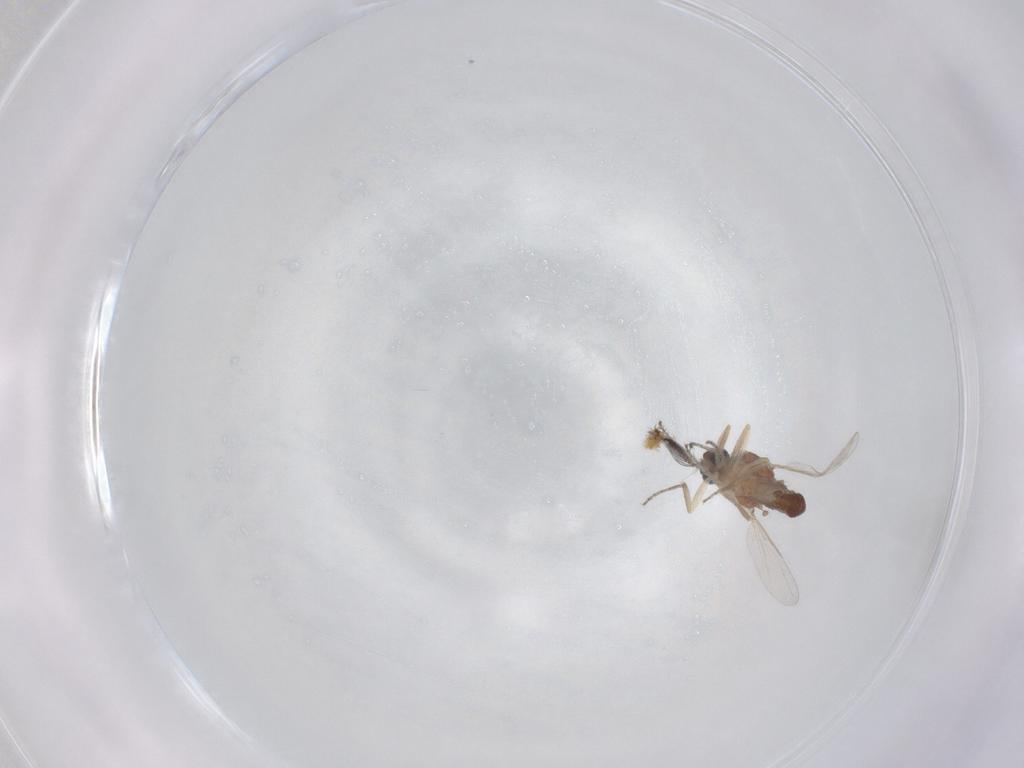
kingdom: Animalia
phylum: Arthropoda
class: Insecta
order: Diptera
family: Ceratopogonidae
